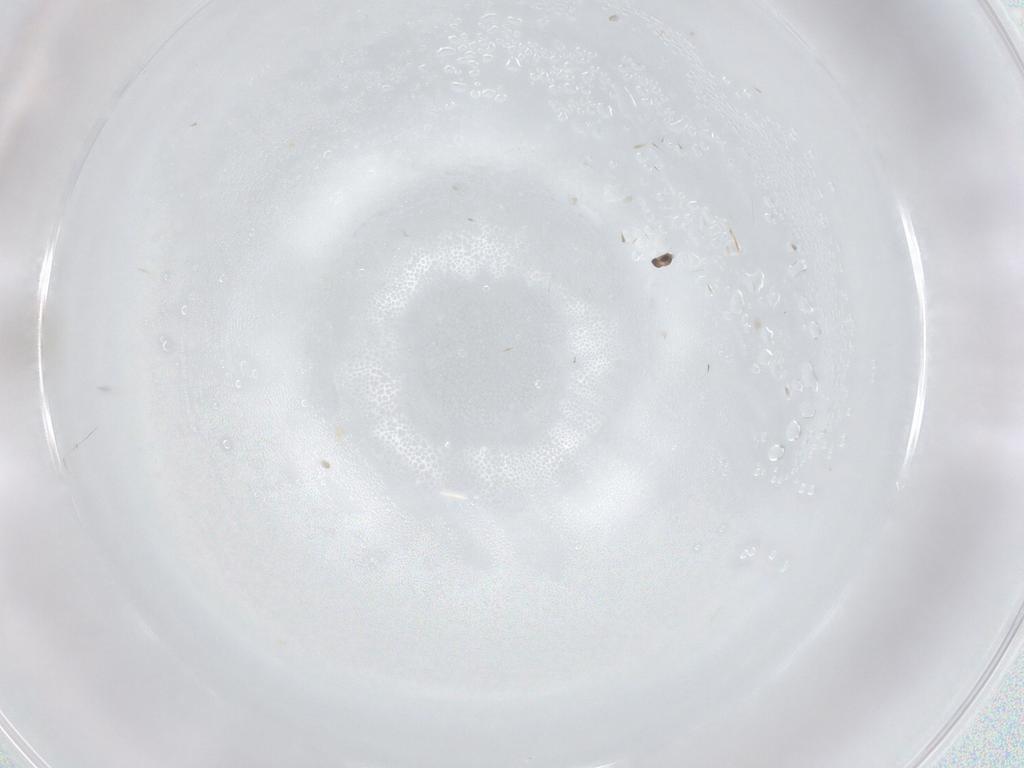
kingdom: Animalia
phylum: Arthropoda
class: Insecta
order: Diptera
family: Cecidomyiidae
